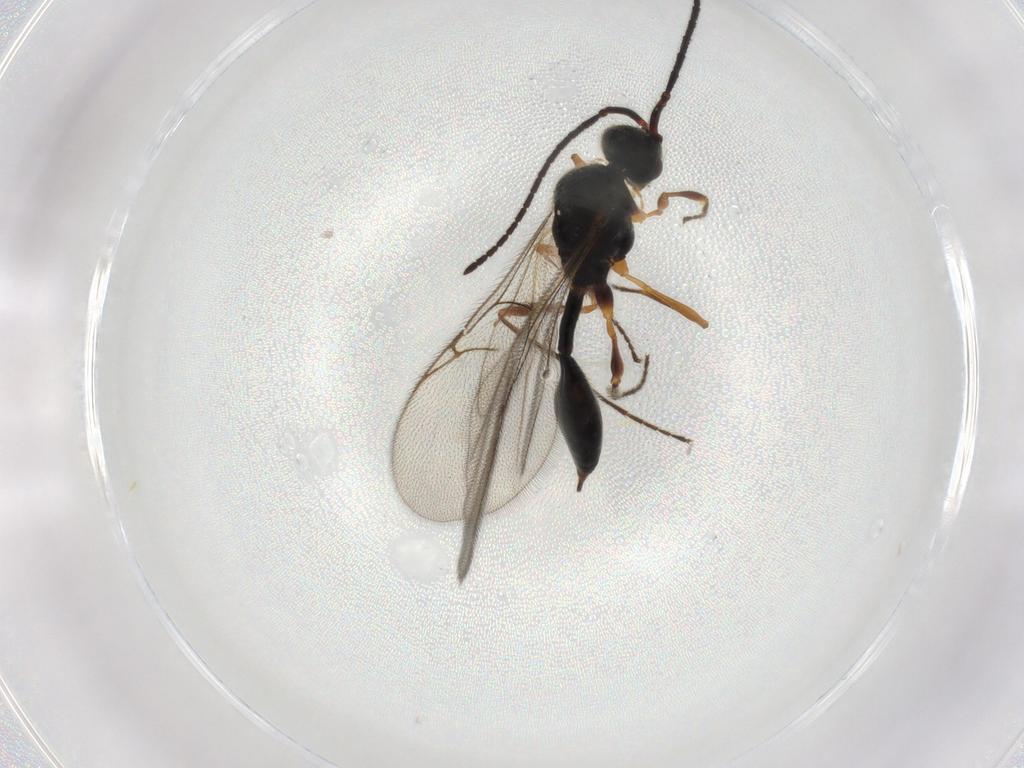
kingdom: Animalia
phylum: Arthropoda
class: Insecta
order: Hymenoptera
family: Diapriidae
